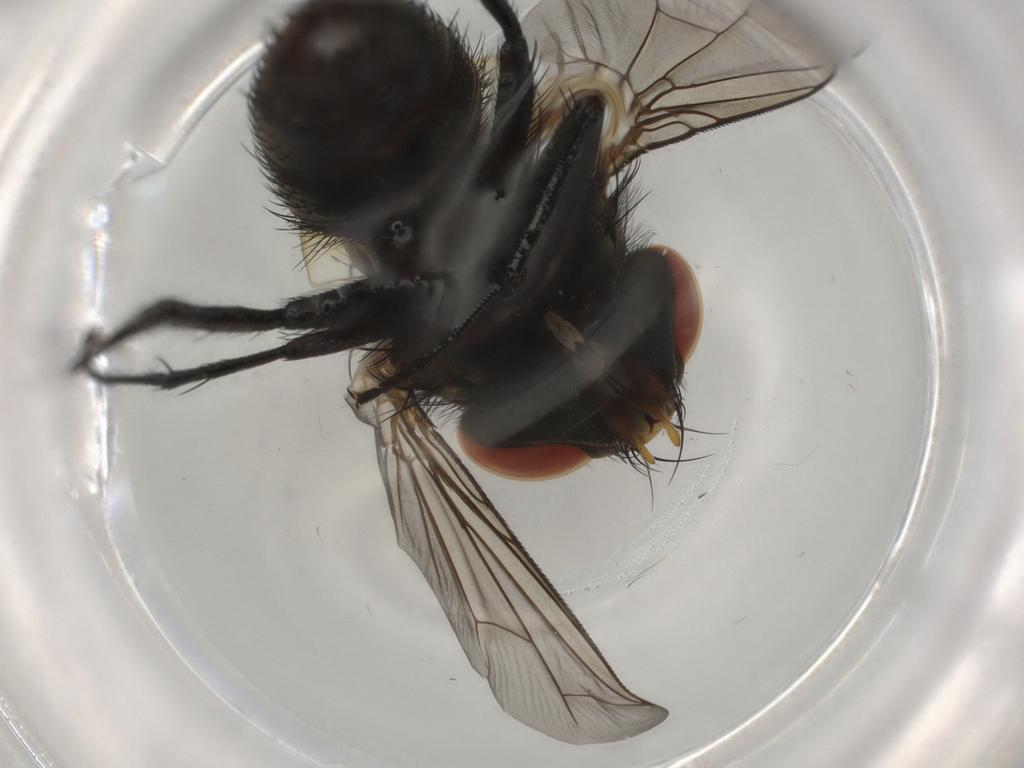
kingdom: Animalia
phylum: Arthropoda
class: Insecta
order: Diptera
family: Sarcophagidae
